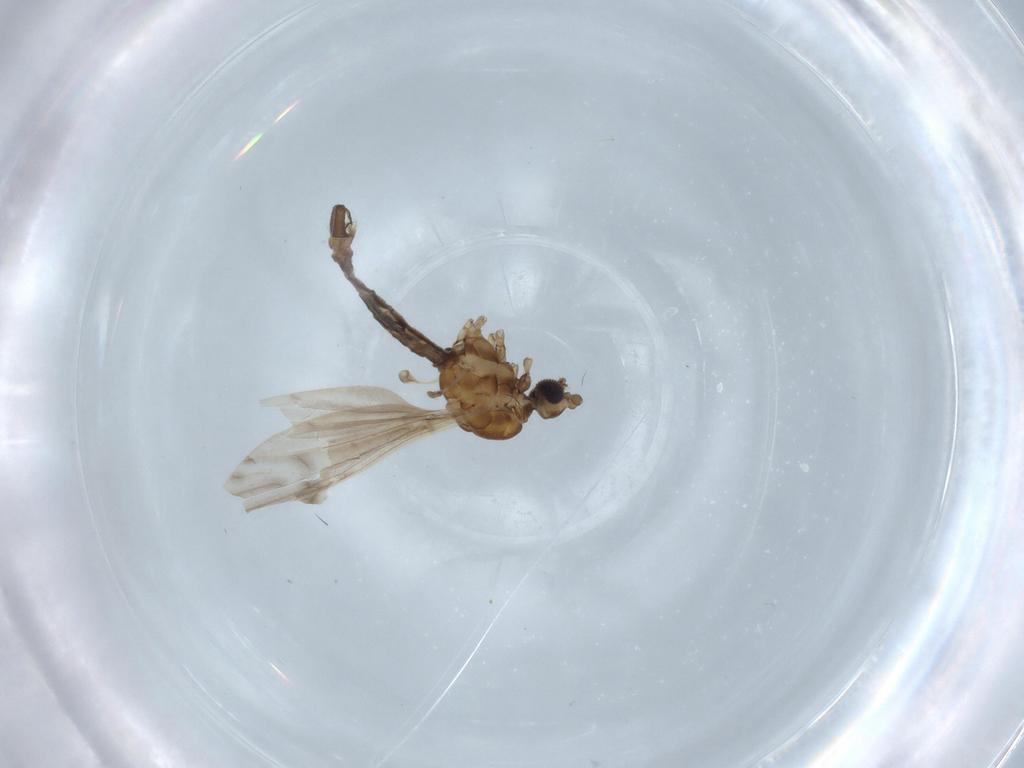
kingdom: Animalia
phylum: Arthropoda
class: Insecta
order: Diptera
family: Limoniidae
